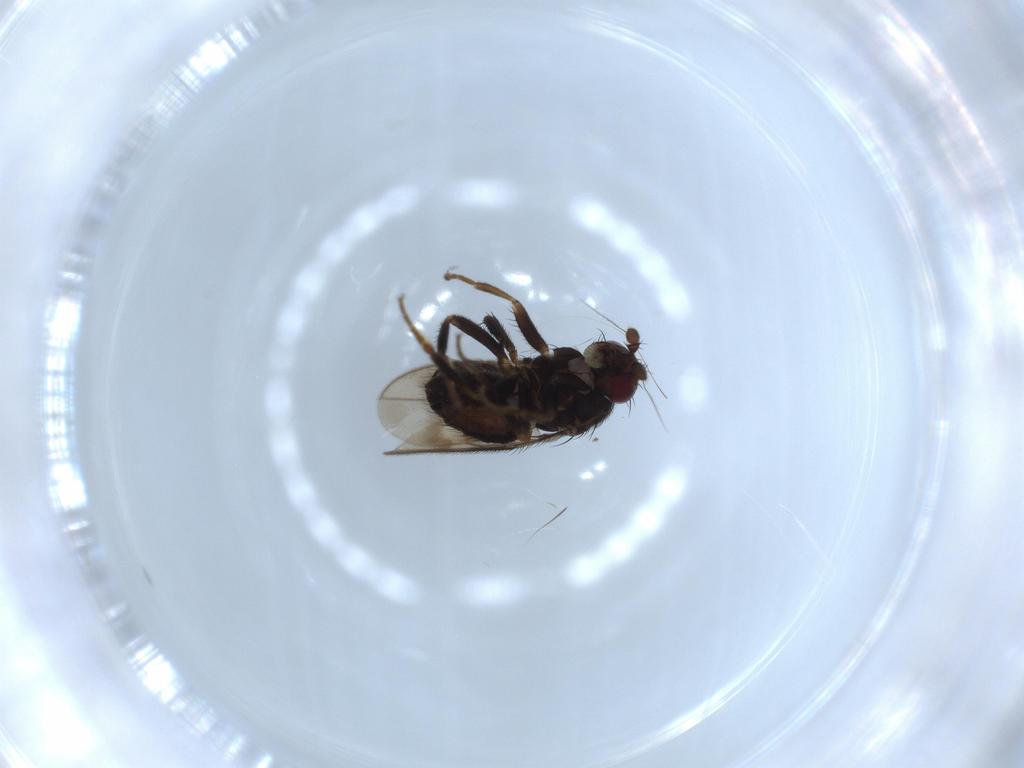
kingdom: Animalia
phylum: Arthropoda
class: Insecta
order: Diptera
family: Sphaeroceridae
